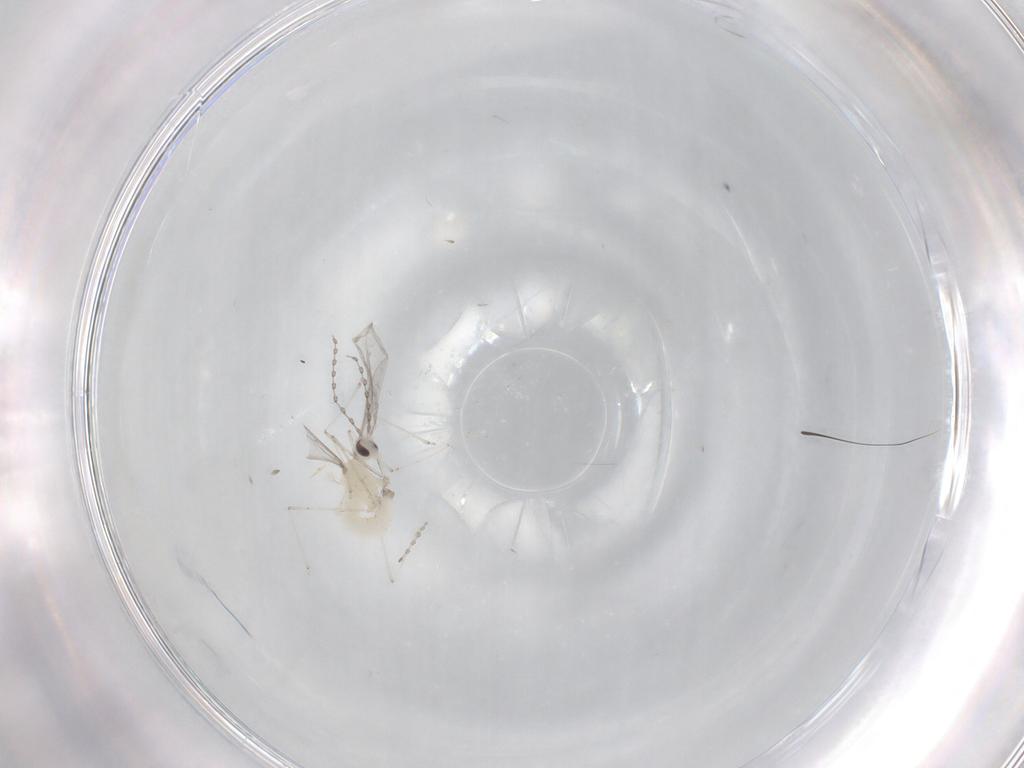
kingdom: Animalia
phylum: Arthropoda
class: Insecta
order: Diptera
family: Cecidomyiidae
